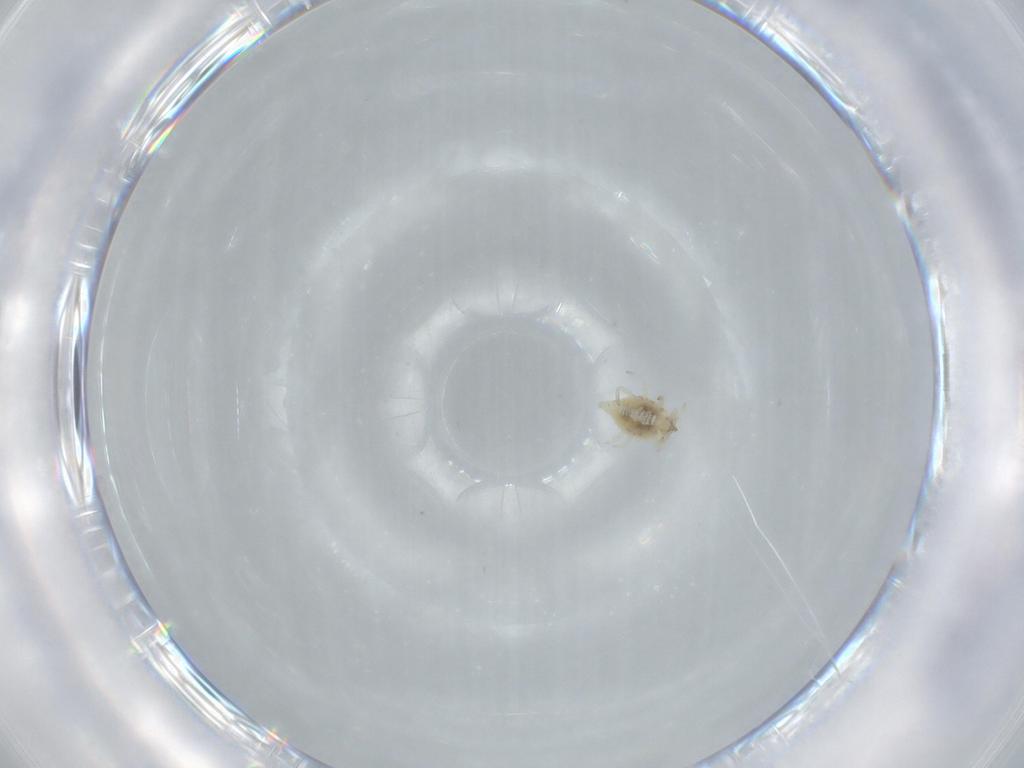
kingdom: Animalia
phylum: Arthropoda
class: Insecta
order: Neuroptera
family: Coniopterygidae
